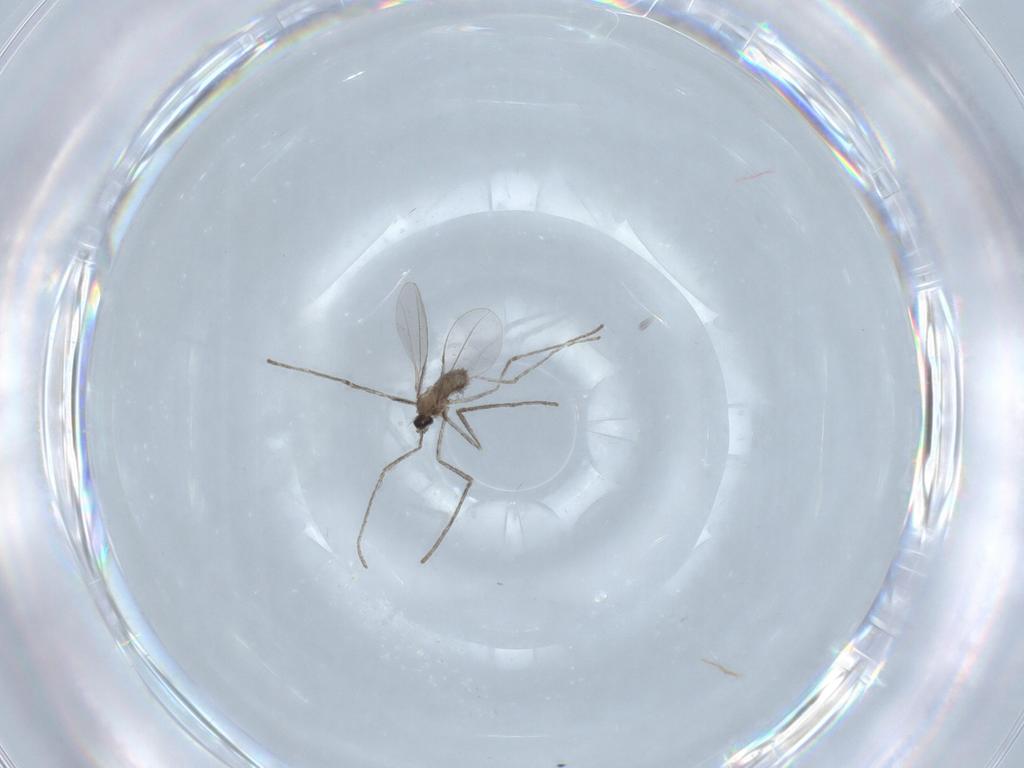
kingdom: Animalia
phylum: Arthropoda
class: Insecta
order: Diptera
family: Cecidomyiidae
